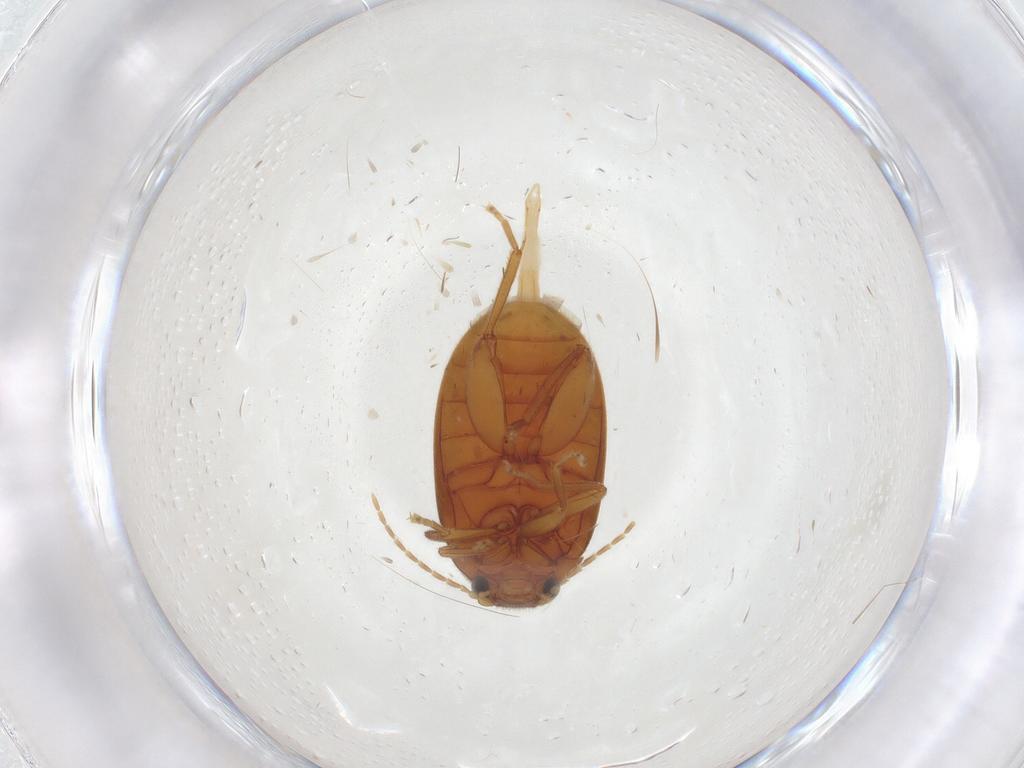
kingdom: Animalia
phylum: Arthropoda
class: Insecta
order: Coleoptera
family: Scirtidae
